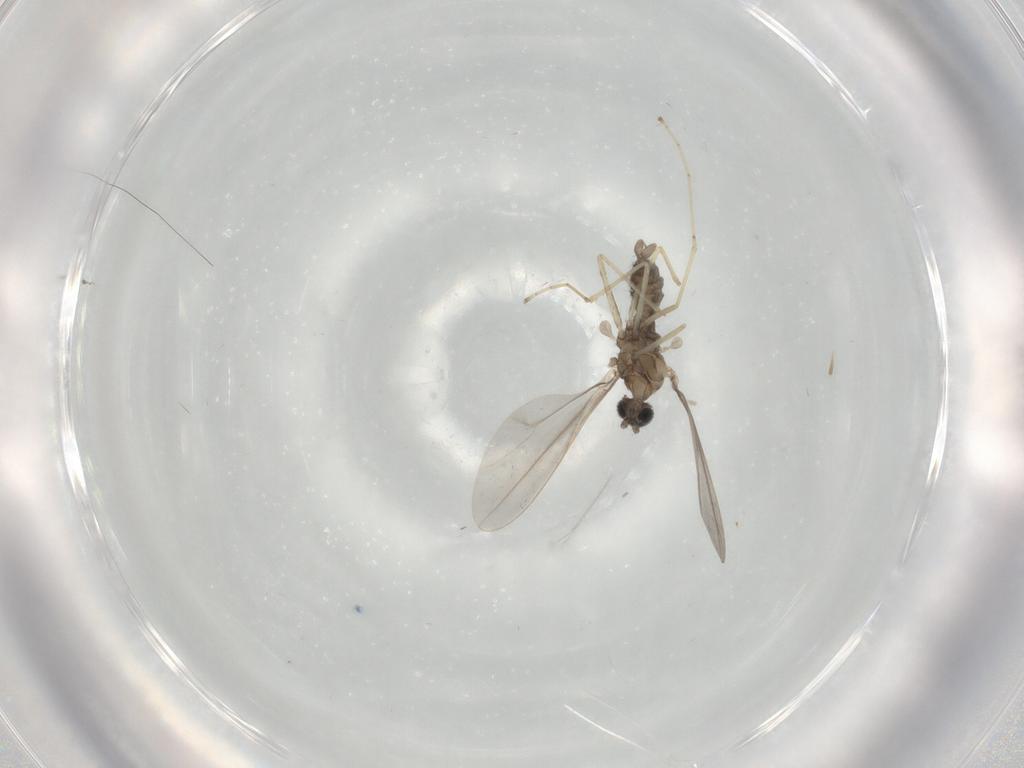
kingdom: Animalia
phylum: Arthropoda
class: Insecta
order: Diptera
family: Cecidomyiidae
